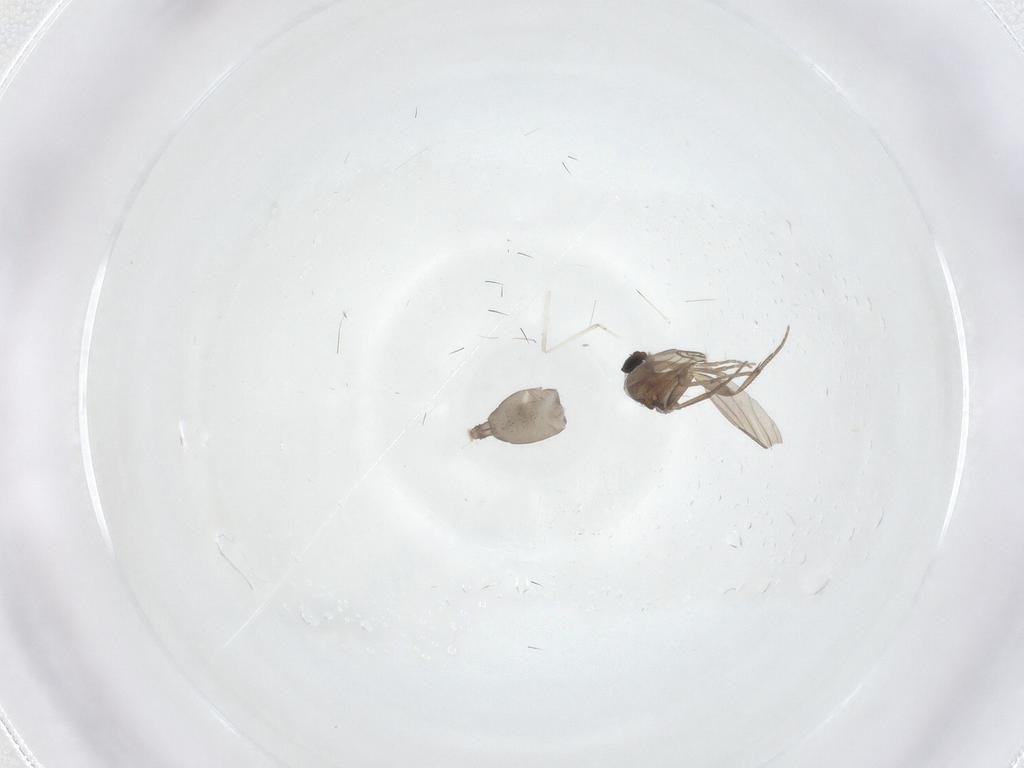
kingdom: Animalia
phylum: Arthropoda
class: Insecta
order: Diptera
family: Phoridae
